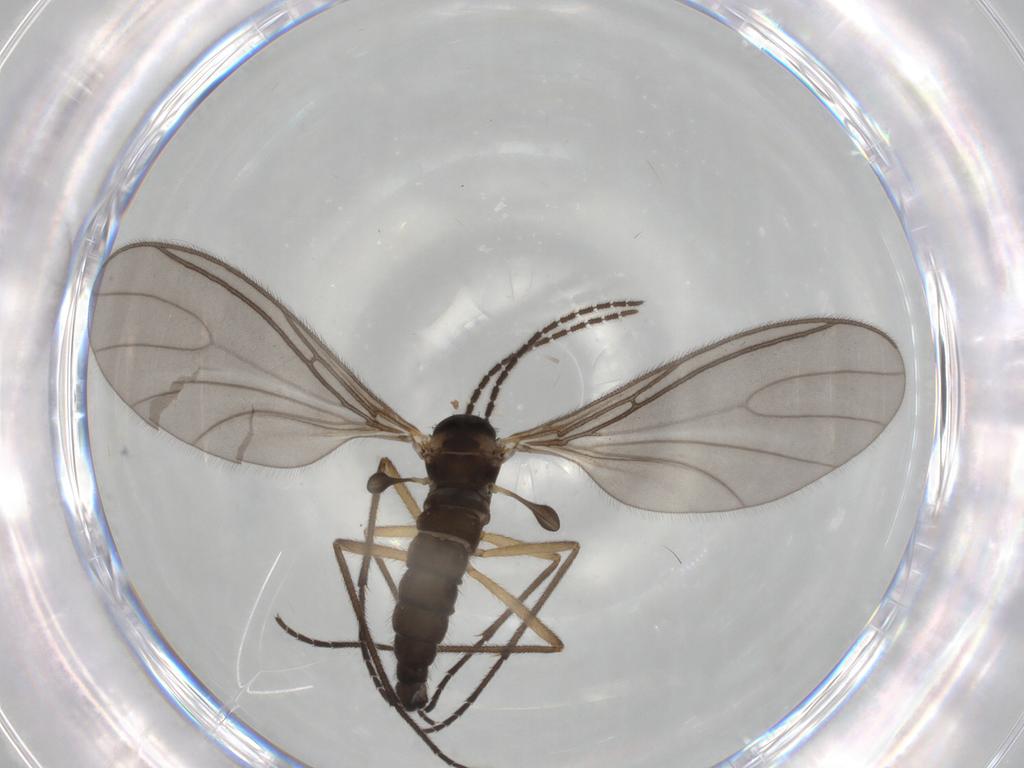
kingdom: Animalia
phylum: Arthropoda
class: Insecta
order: Diptera
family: Sciaridae
